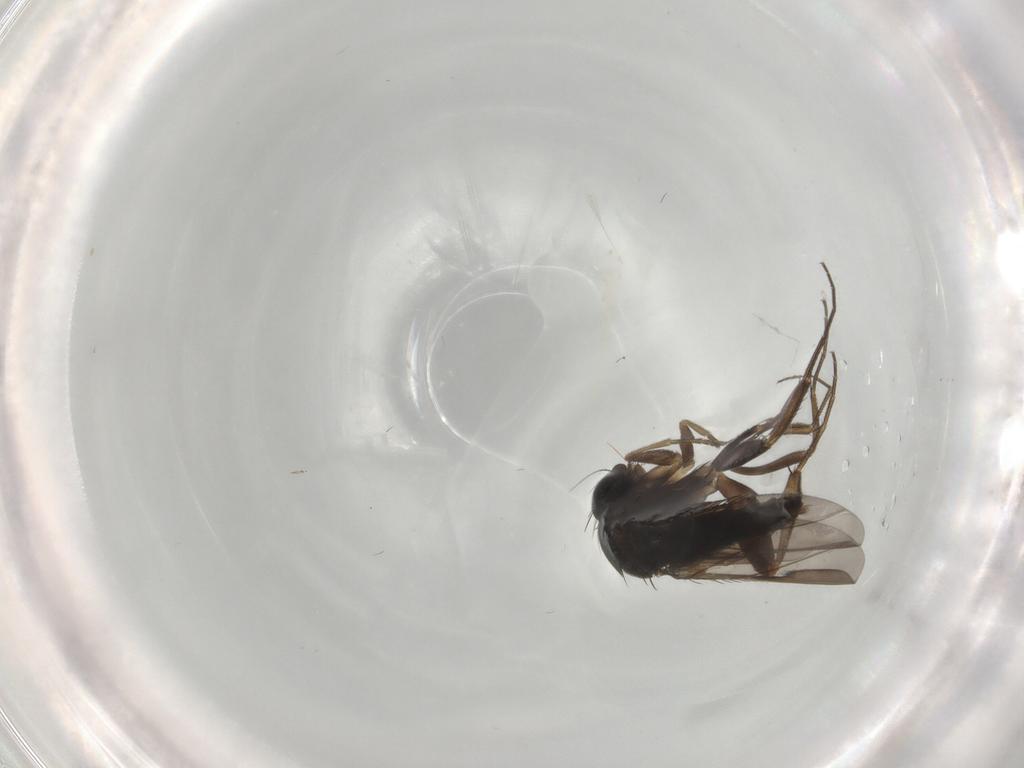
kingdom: Animalia
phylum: Arthropoda
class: Insecta
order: Diptera
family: Phoridae
